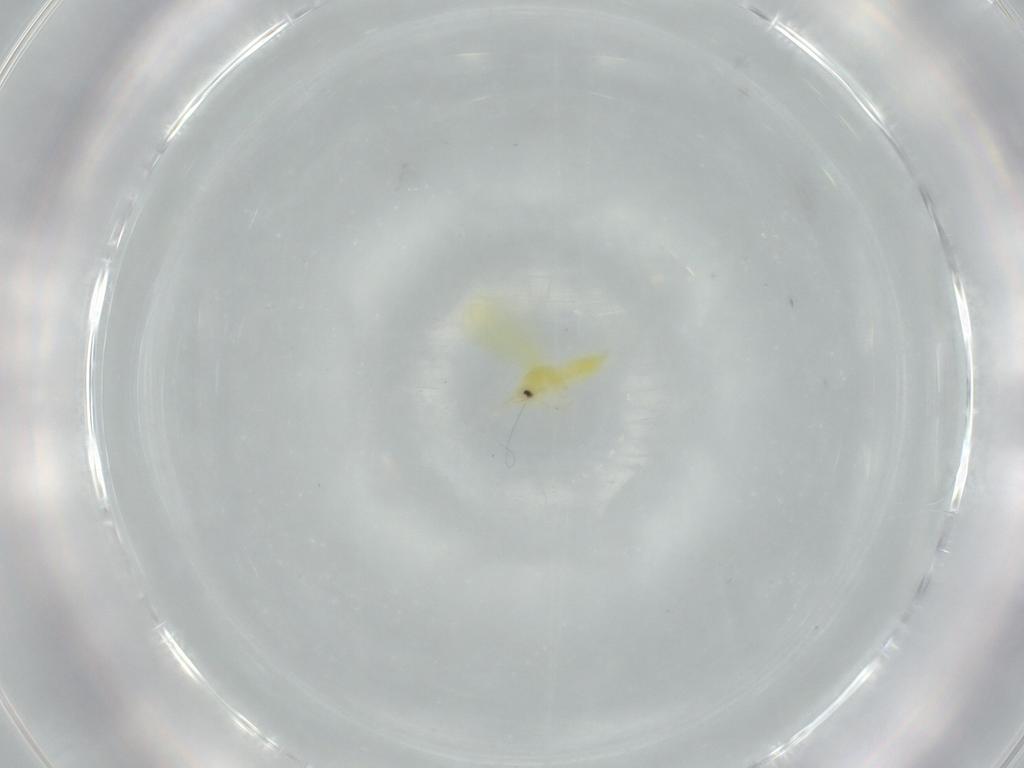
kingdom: Animalia
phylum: Arthropoda
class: Insecta
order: Hemiptera
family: Aleyrodidae
